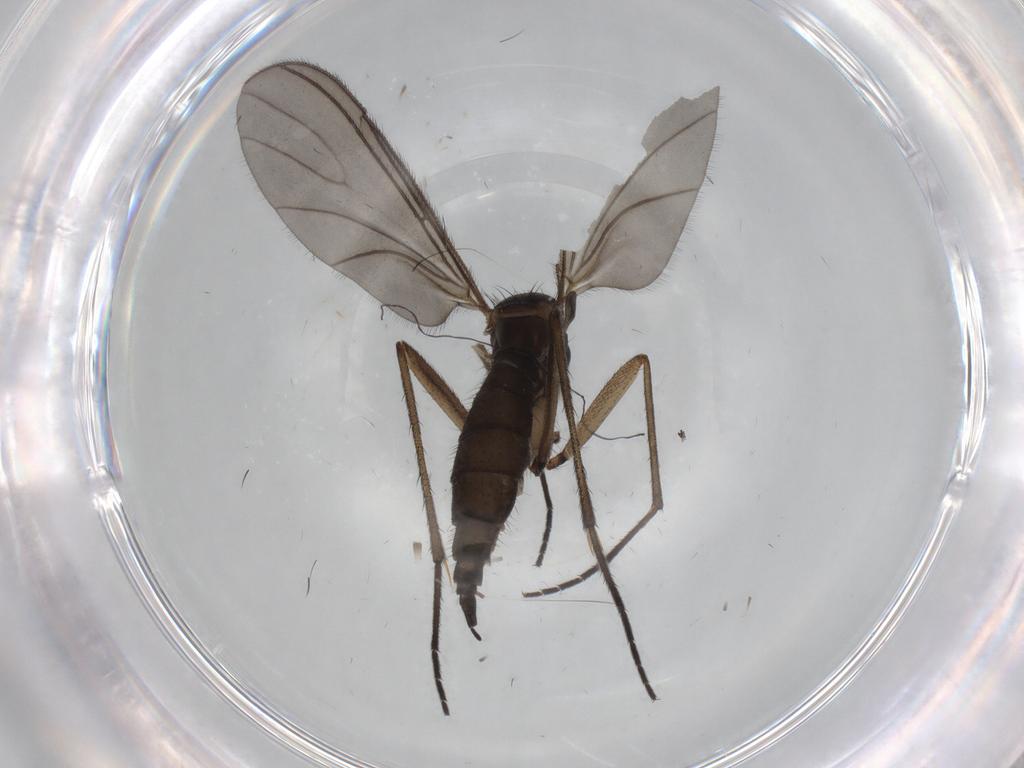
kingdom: Animalia
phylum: Arthropoda
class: Insecta
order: Diptera
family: Sciaridae
